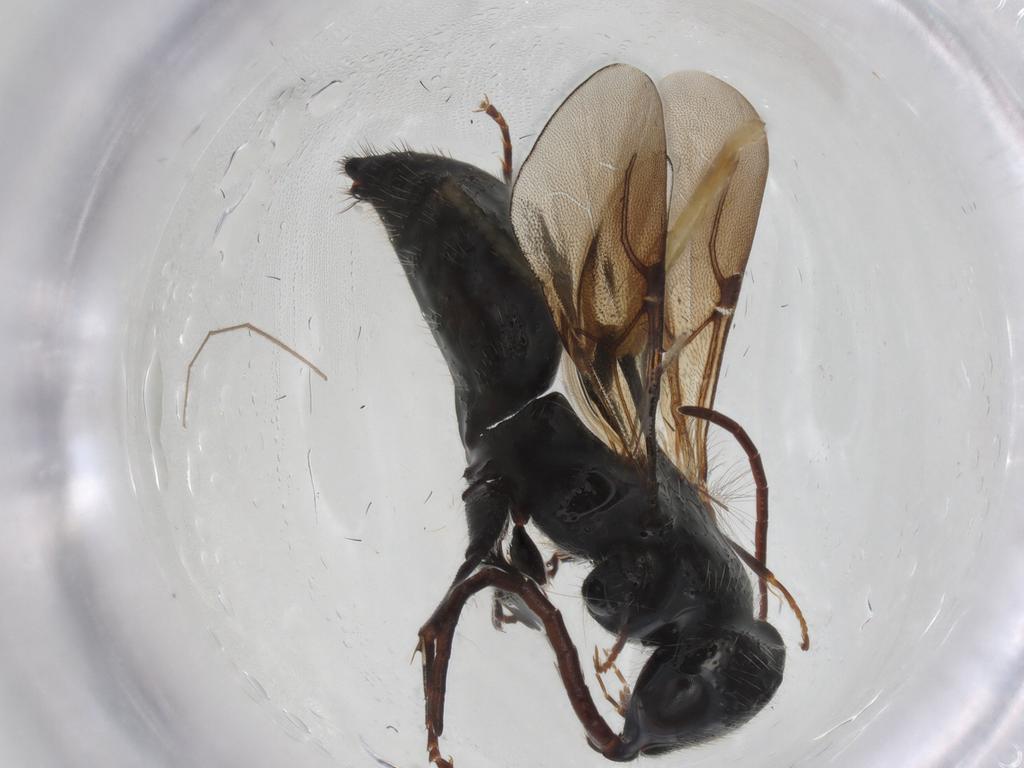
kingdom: Animalia
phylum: Arthropoda
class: Insecta
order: Hymenoptera
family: Bethylidae
